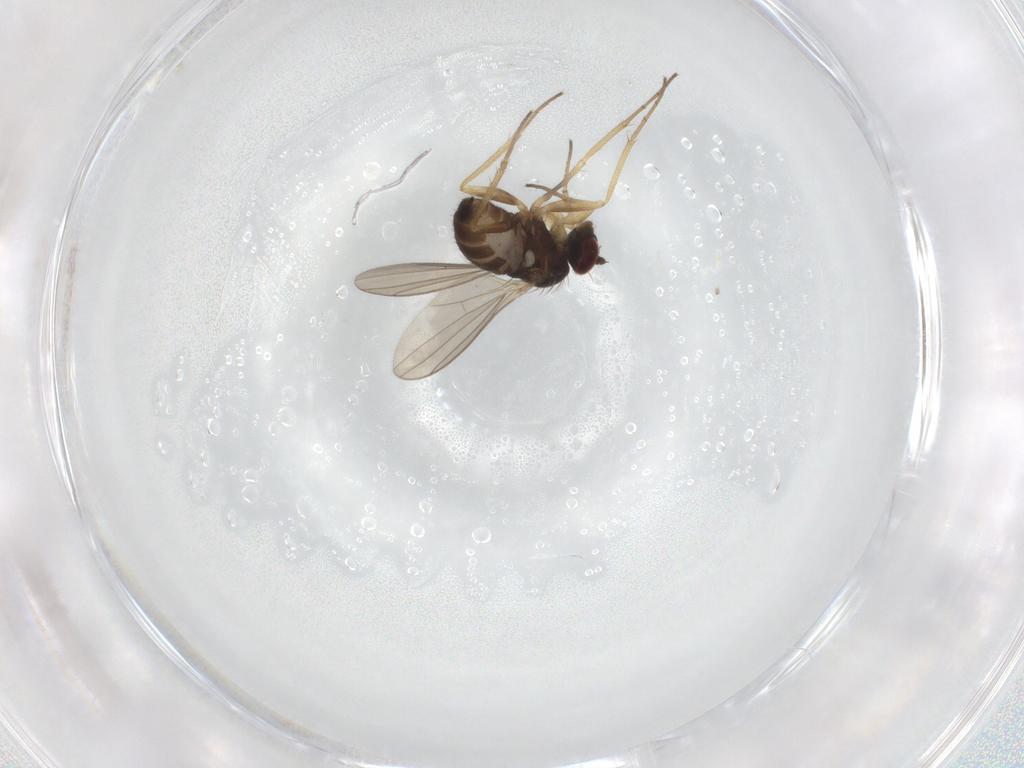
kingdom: Animalia
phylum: Arthropoda
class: Insecta
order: Diptera
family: Dolichopodidae
